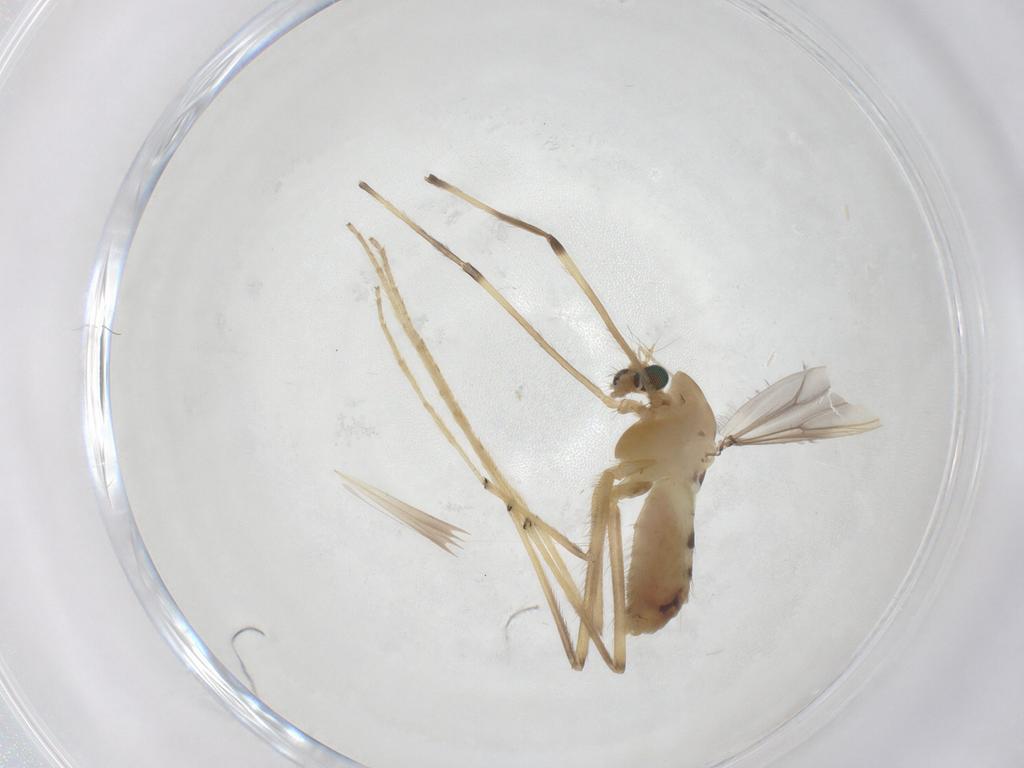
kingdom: Animalia
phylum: Arthropoda
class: Insecta
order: Diptera
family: Chironomidae
